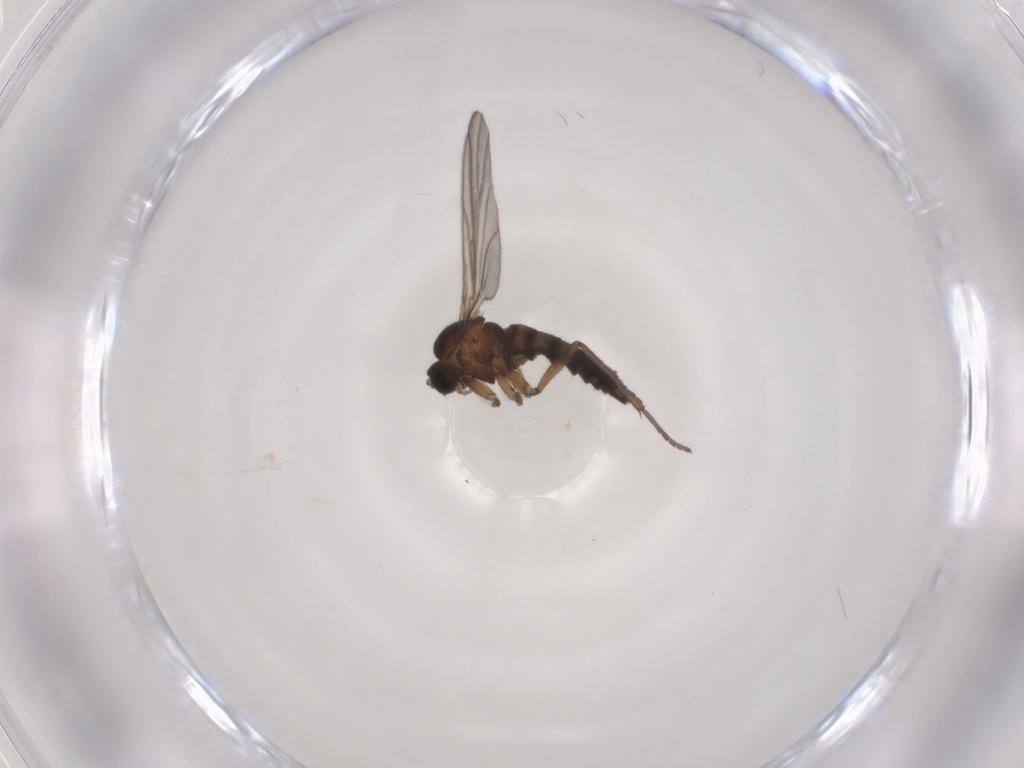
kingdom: Animalia
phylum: Arthropoda
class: Insecta
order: Diptera
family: Sciaridae
